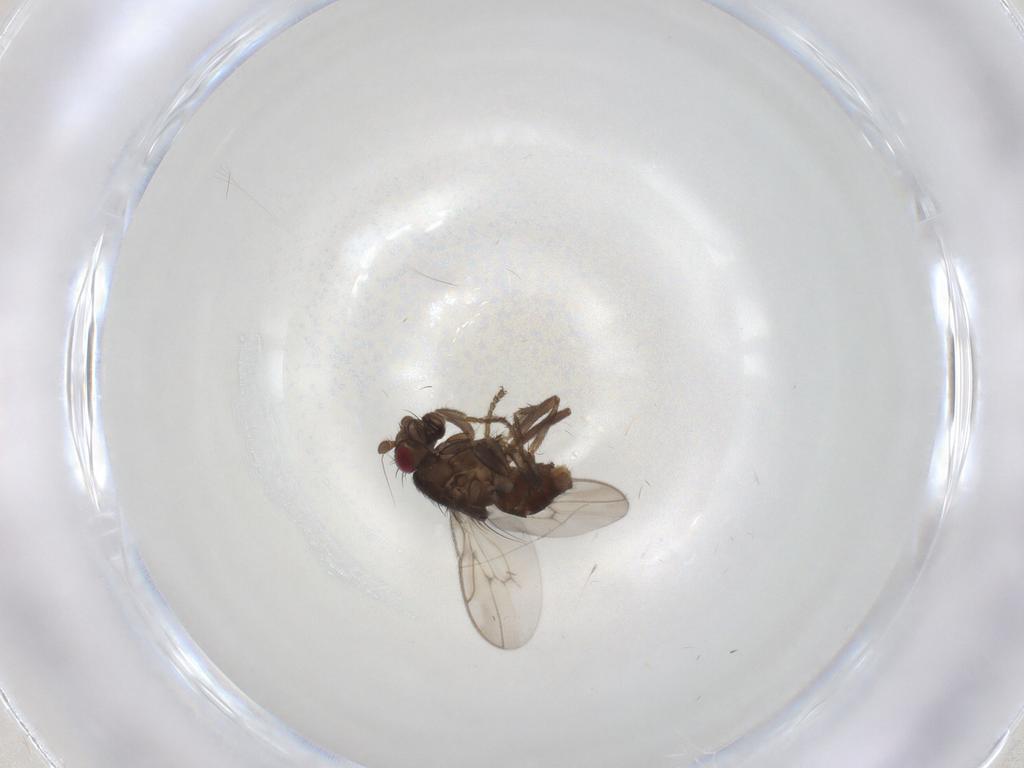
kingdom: Animalia
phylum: Arthropoda
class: Insecta
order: Diptera
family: Sphaeroceridae
